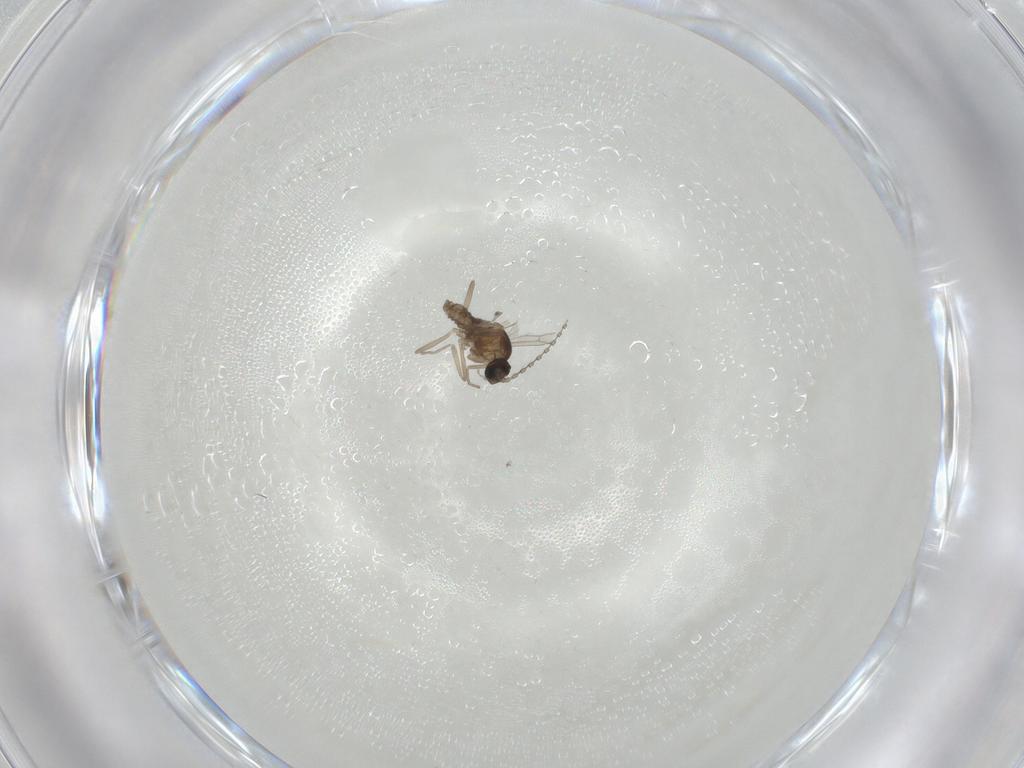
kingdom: Animalia
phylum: Arthropoda
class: Insecta
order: Diptera
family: Cecidomyiidae
